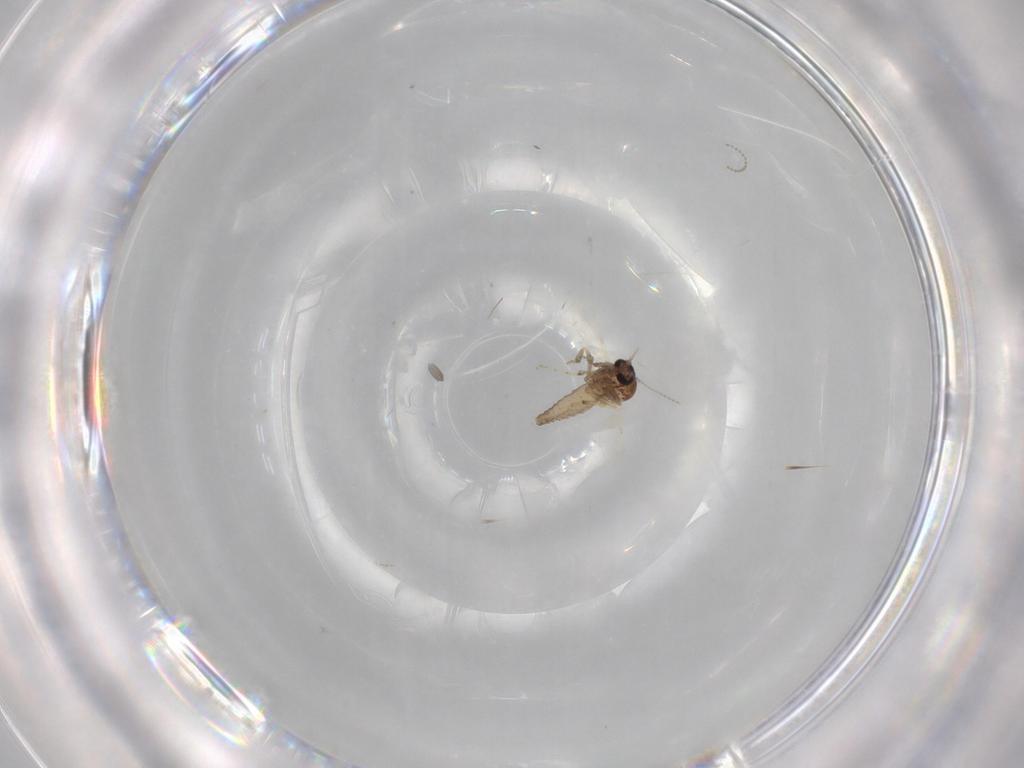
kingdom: Animalia
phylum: Arthropoda
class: Insecta
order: Diptera
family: Ceratopogonidae
